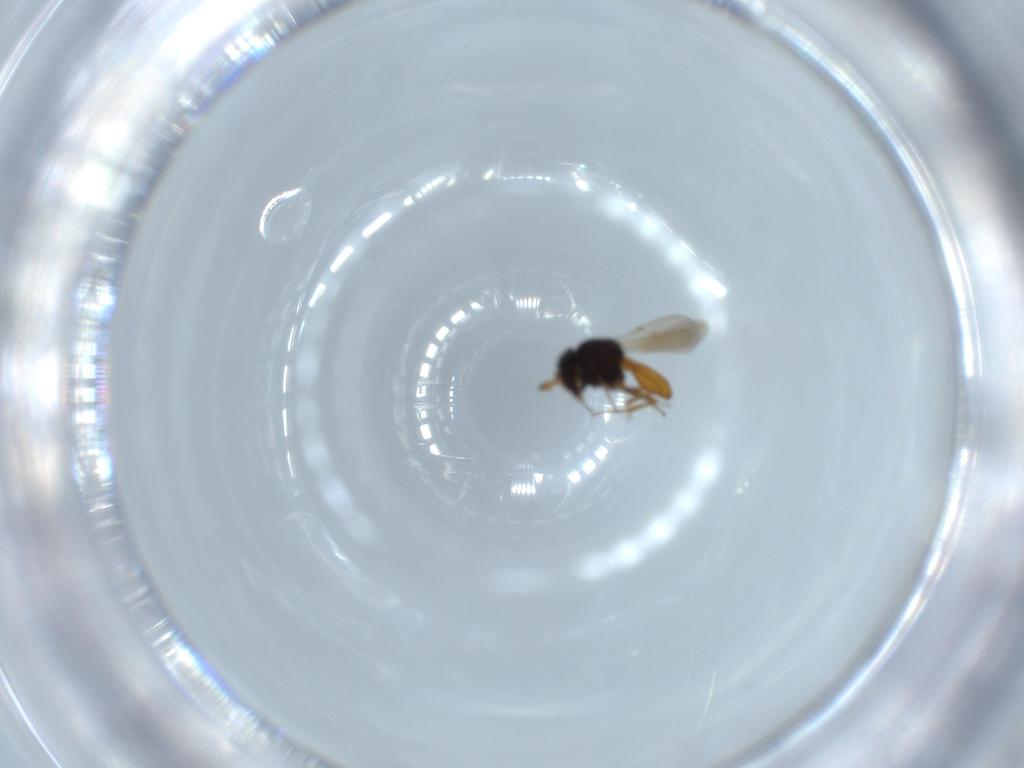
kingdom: Animalia
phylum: Arthropoda
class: Insecta
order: Hymenoptera
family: Scelionidae
